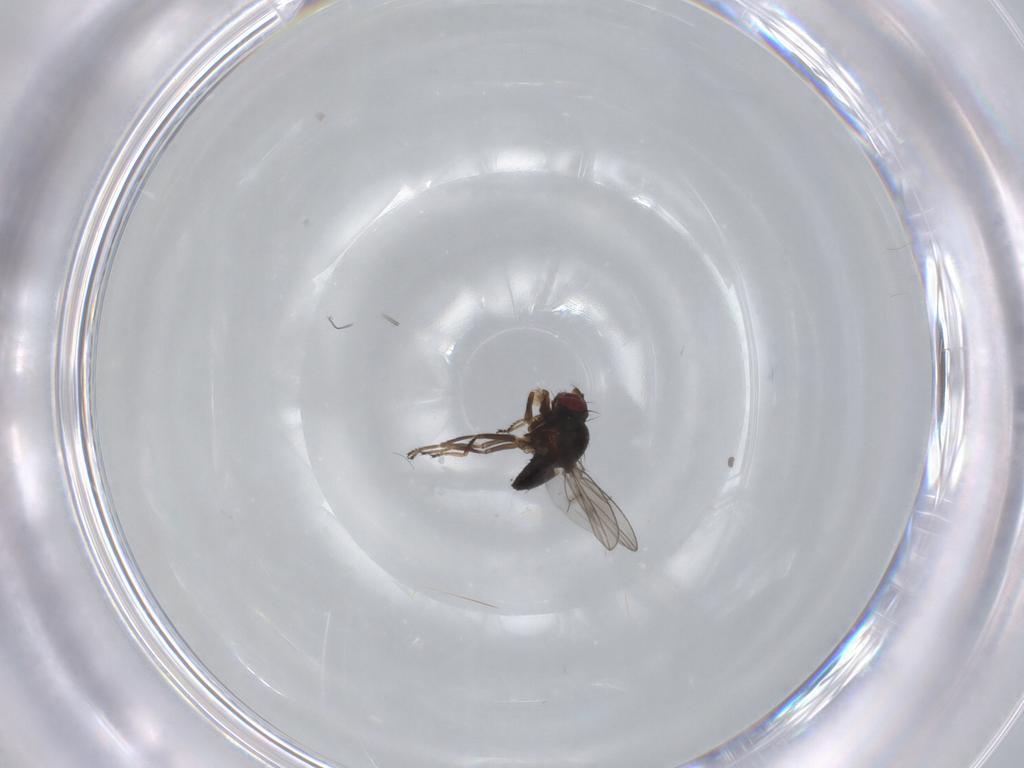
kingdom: Animalia
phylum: Arthropoda
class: Insecta
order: Diptera
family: Ephydridae
